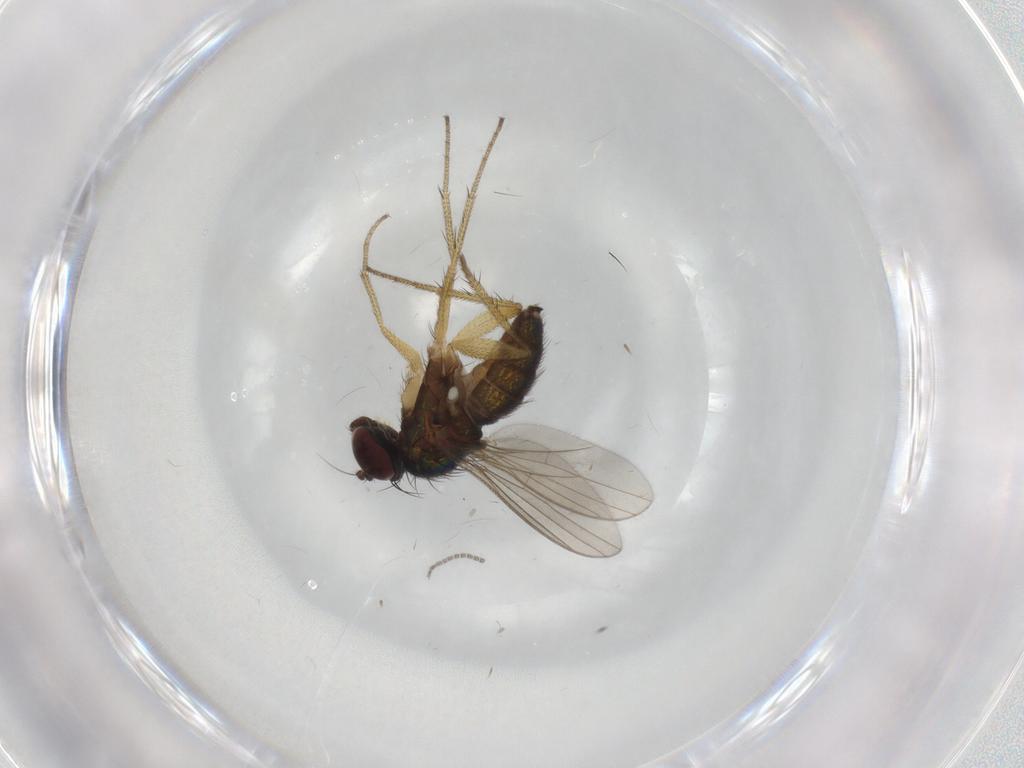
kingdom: Animalia
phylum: Arthropoda
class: Insecta
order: Diptera
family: Sciaridae
